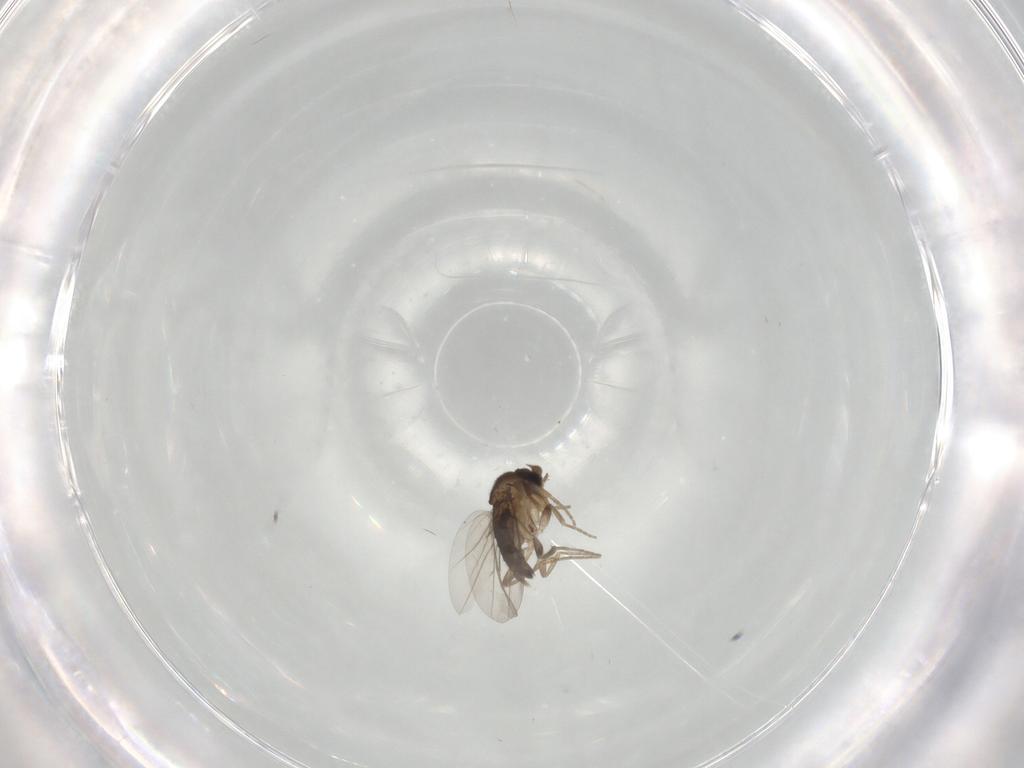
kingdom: Animalia
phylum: Arthropoda
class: Insecta
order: Diptera
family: Phoridae
